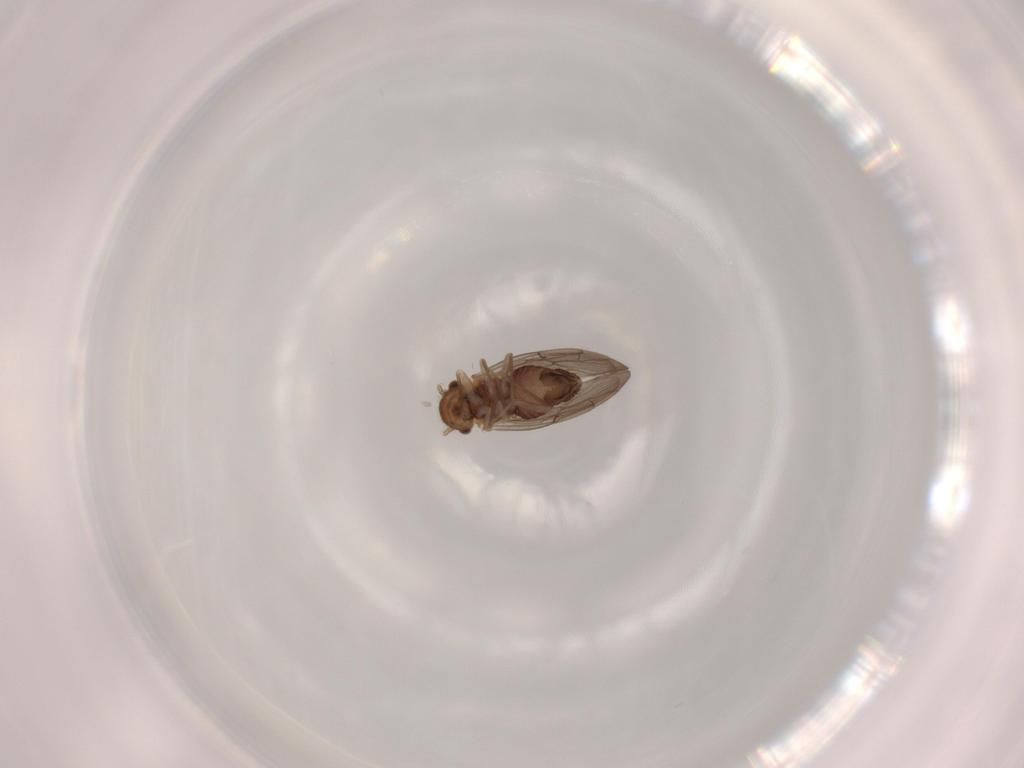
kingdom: Animalia
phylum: Arthropoda
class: Insecta
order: Psocodea
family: Ectopsocidae
